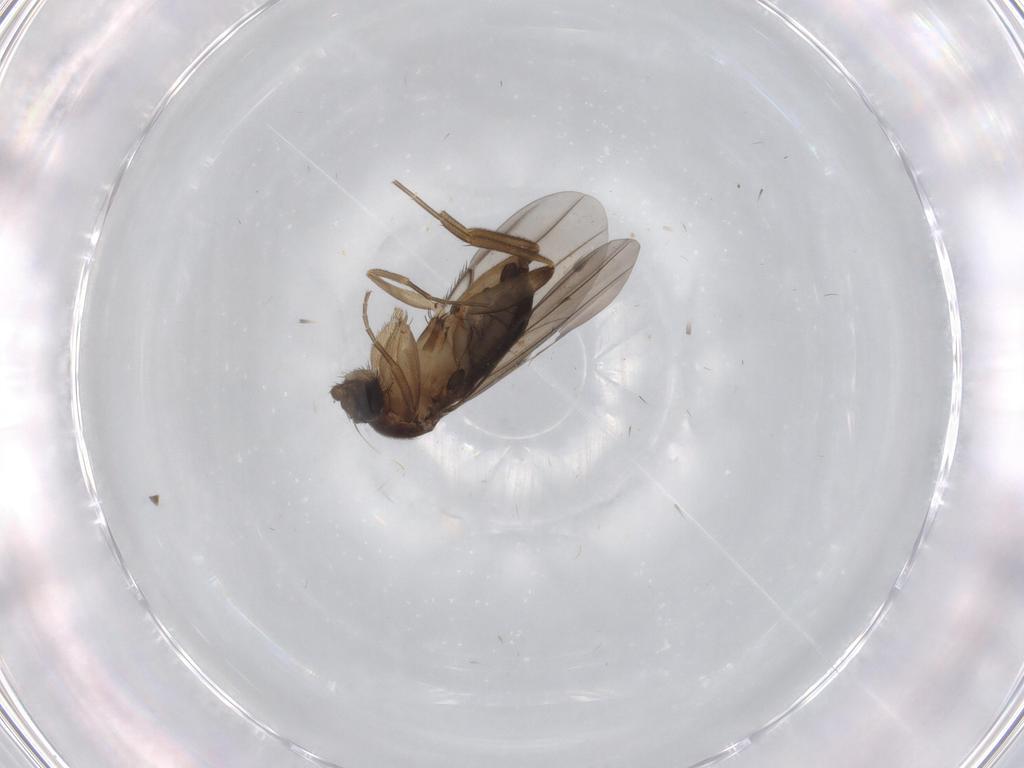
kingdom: Animalia
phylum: Arthropoda
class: Insecta
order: Diptera
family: Phoridae
